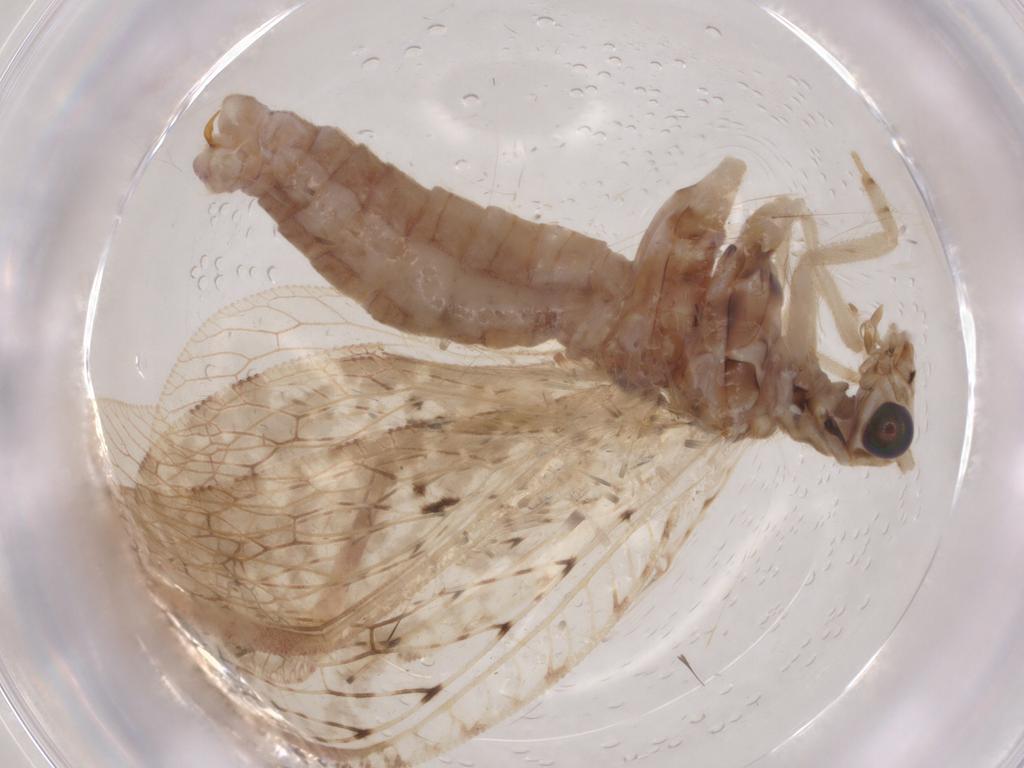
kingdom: Animalia
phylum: Arthropoda
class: Insecta
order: Neuroptera
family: Hemerobiidae
